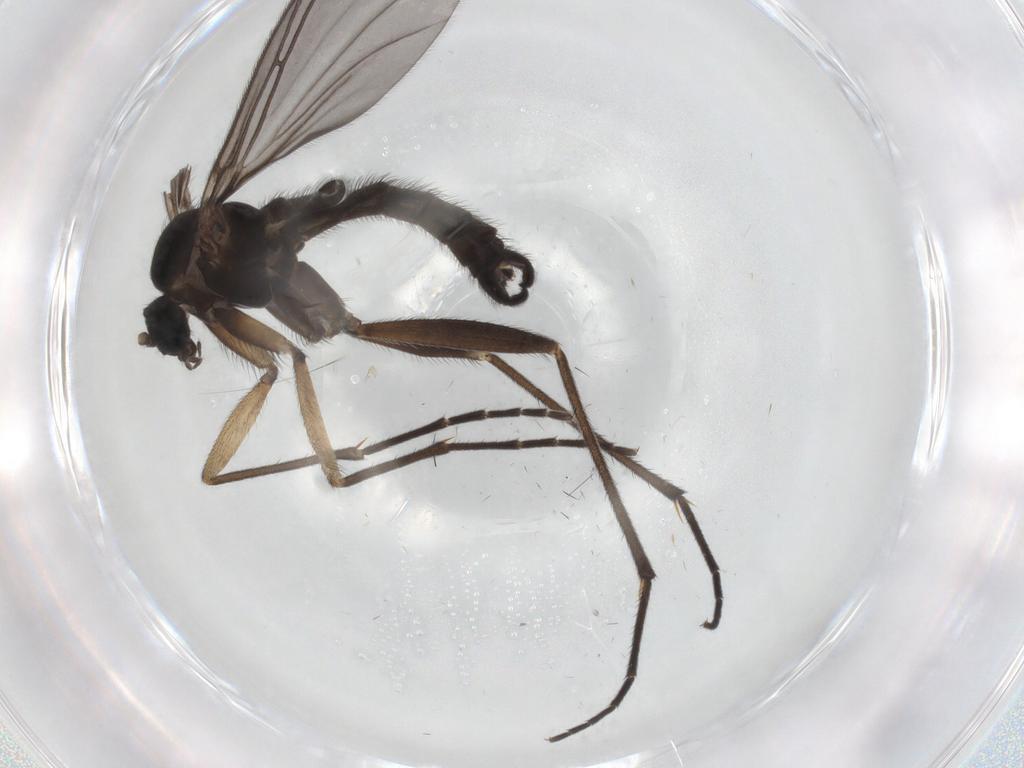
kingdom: Animalia
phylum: Arthropoda
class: Insecta
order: Diptera
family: Sciaridae
